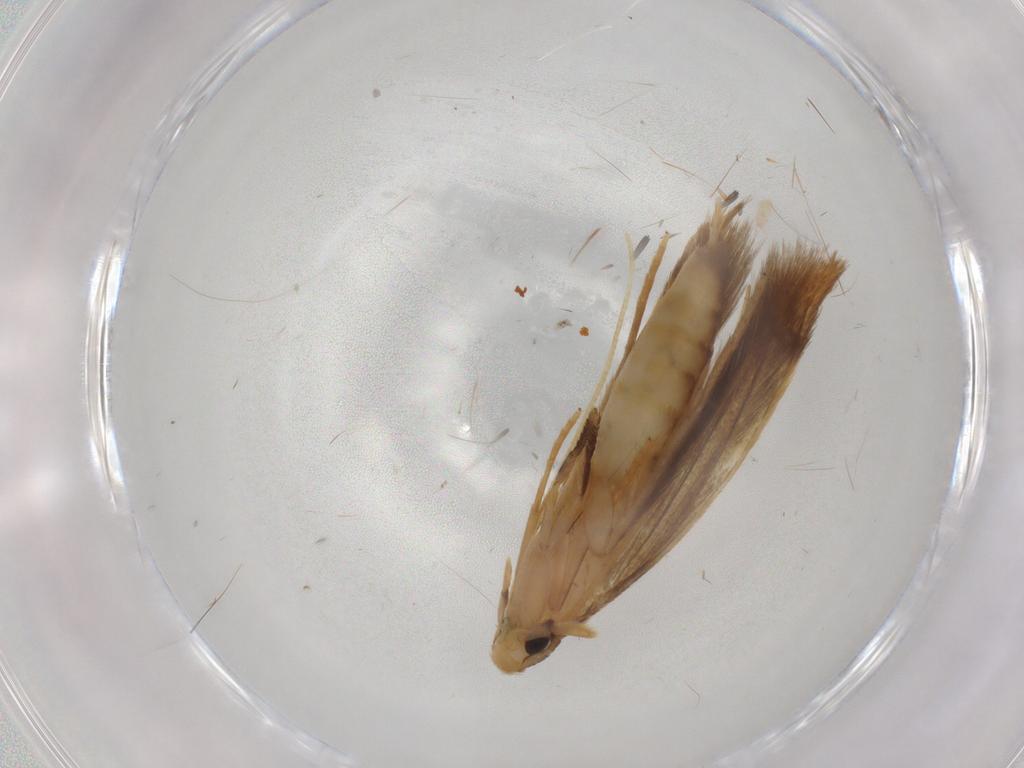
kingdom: Animalia
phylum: Arthropoda
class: Insecta
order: Lepidoptera
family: Tineidae
